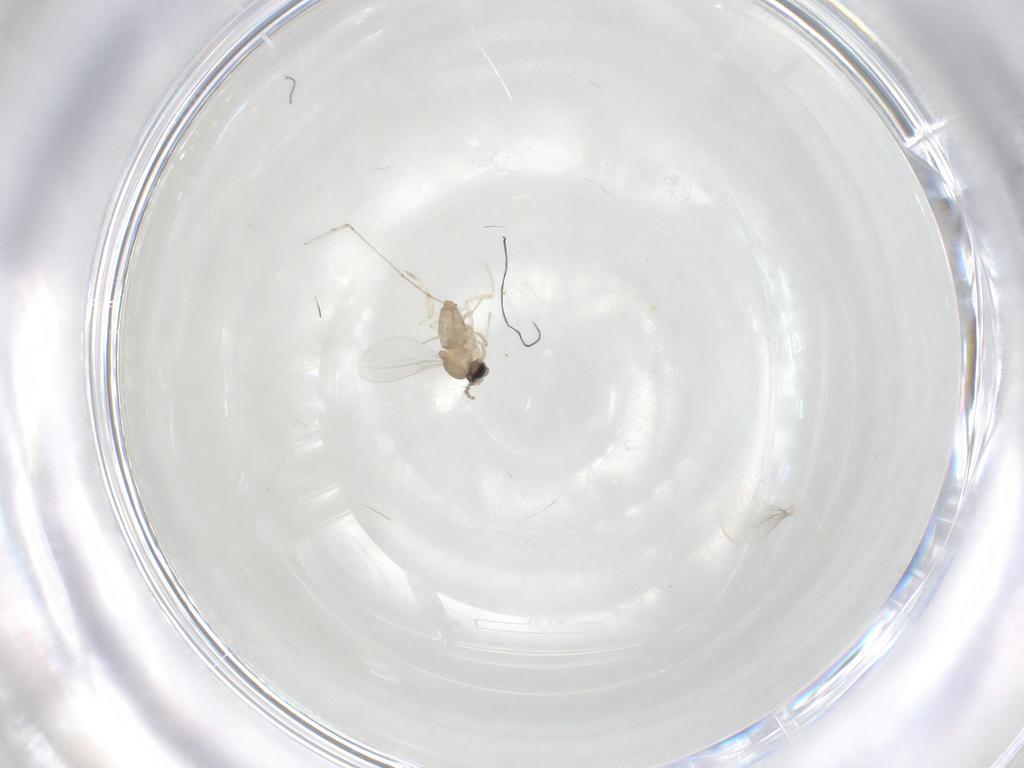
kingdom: Animalia
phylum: Arthropoda
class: Insecta
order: Diptera
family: Cecidomyiidae
